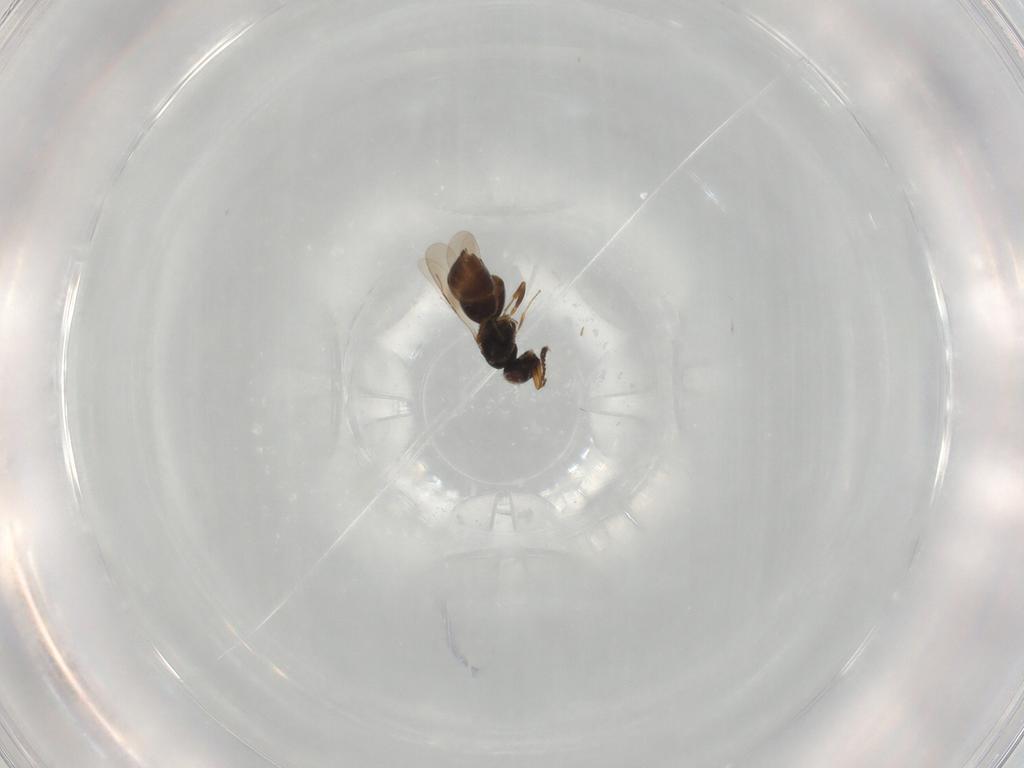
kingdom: Animalia
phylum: Arthropoda
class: Insecta
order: Hymenoptera
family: Ceraphronidae
